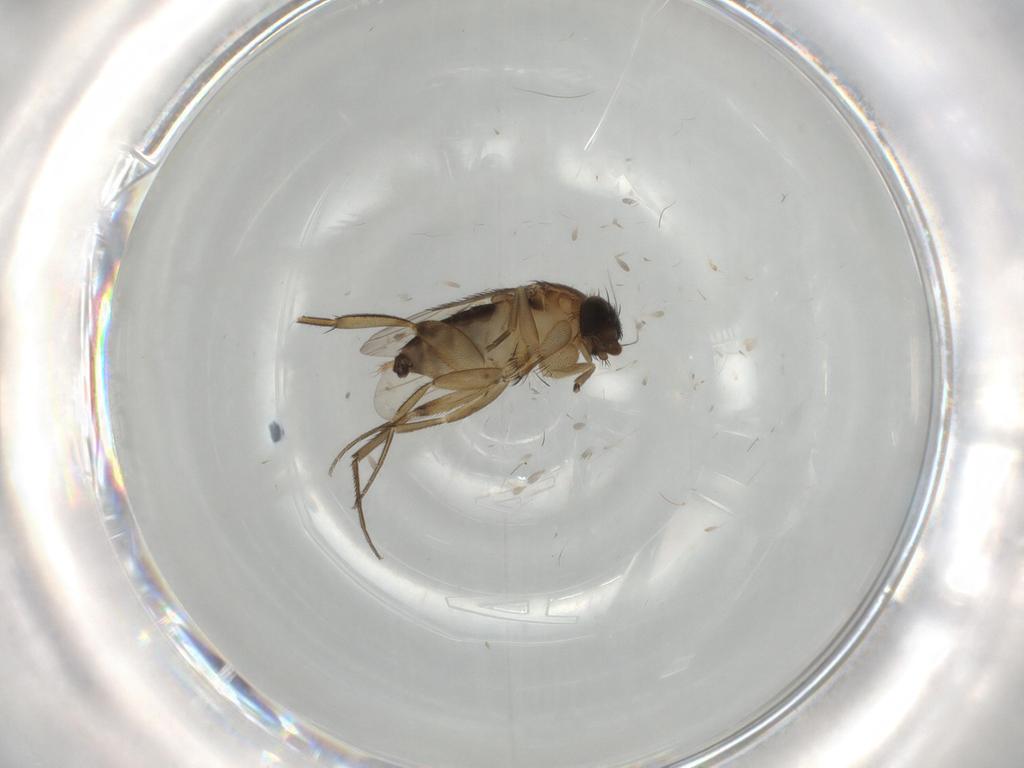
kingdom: Animalia
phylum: Arthropoda
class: Insecta
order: Diptera
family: Phoridae
